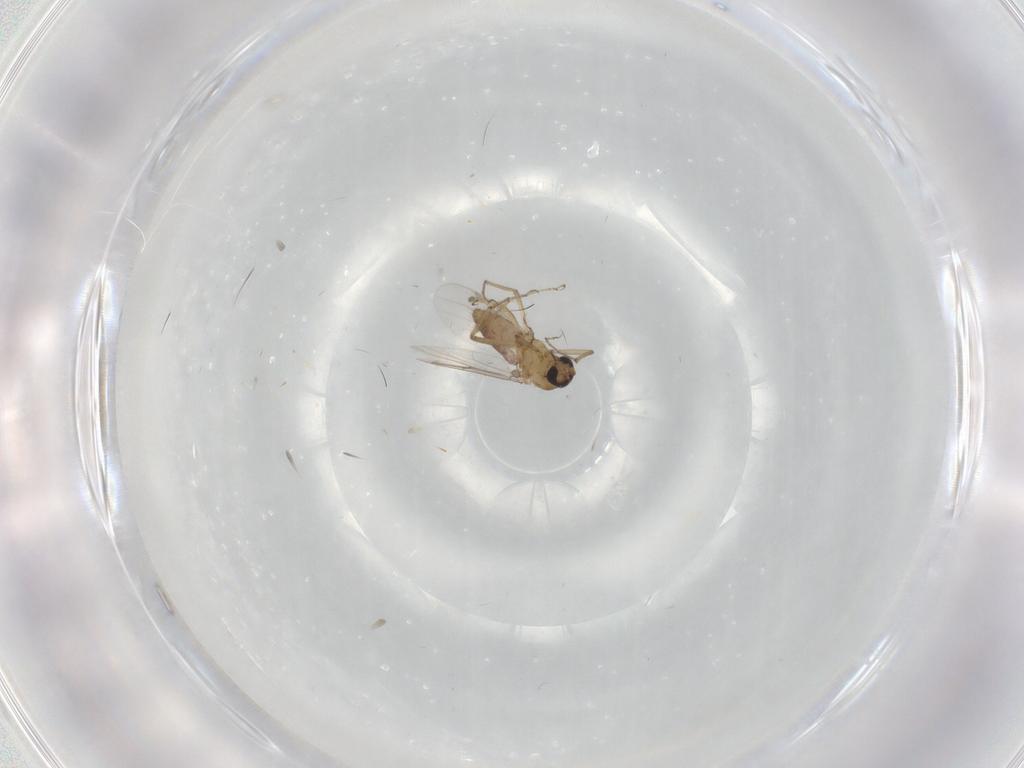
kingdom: Animalia
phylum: Arthropoda
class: Insecta
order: Diptera
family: Ceratopogonidae
